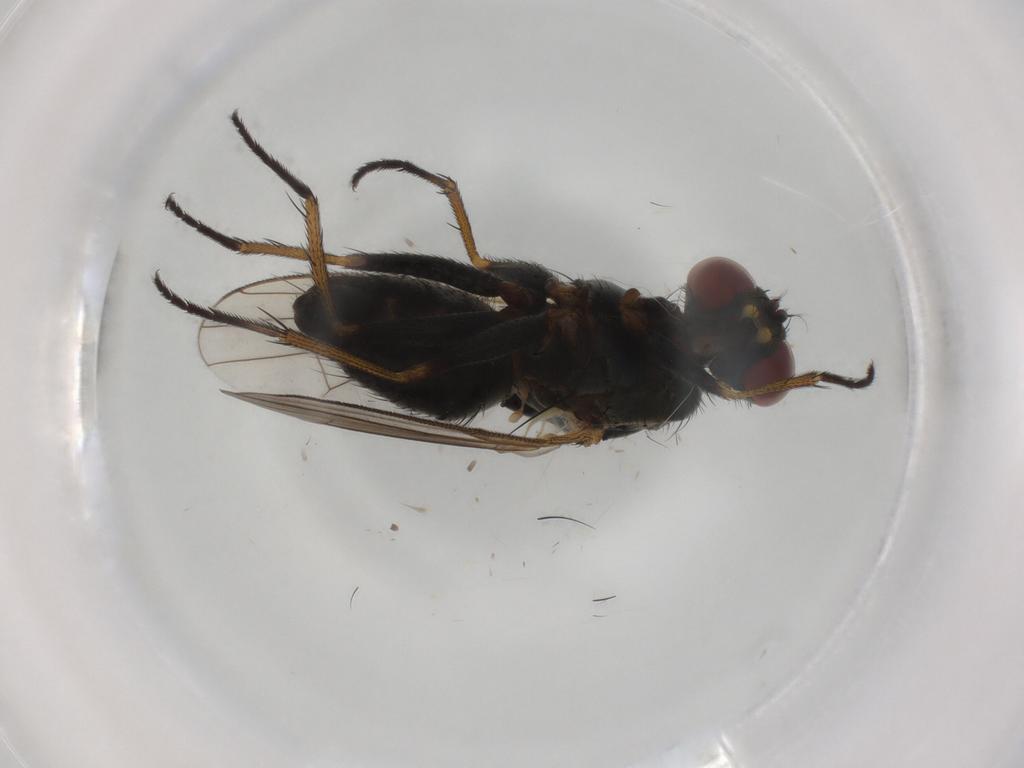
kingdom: Animalia
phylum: Arthropoda
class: Insecta
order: Diptera
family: Muscidae
